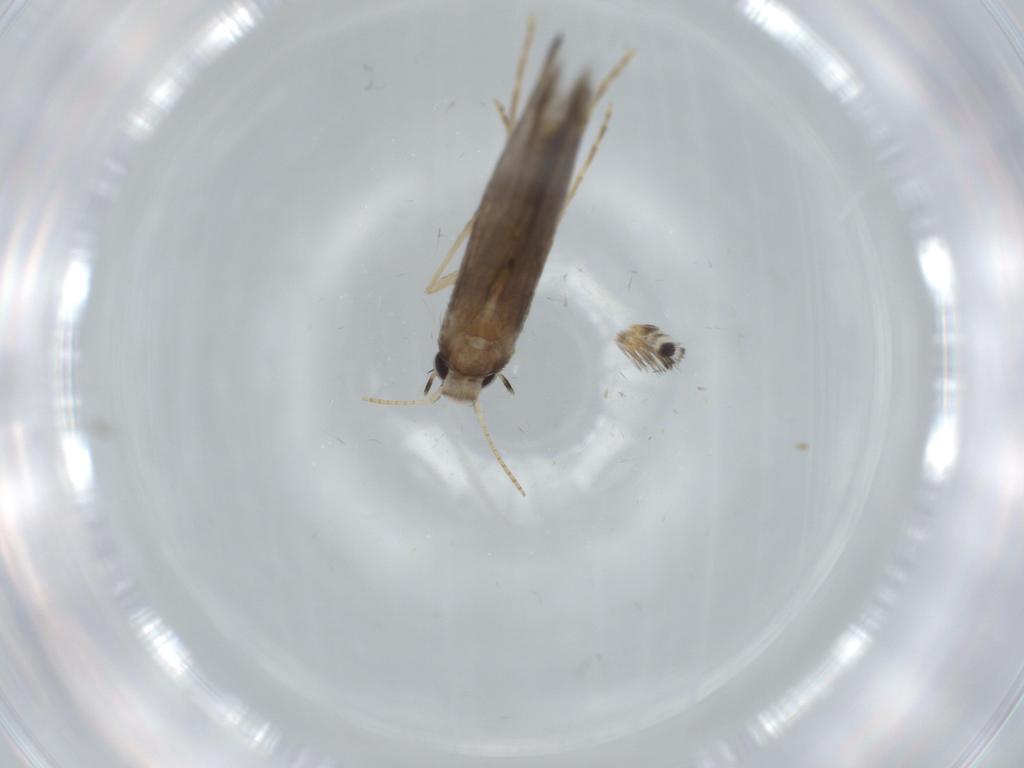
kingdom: Animalia
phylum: Arthropoda
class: Insecta
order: Lepidoptera
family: Gracillariidae
